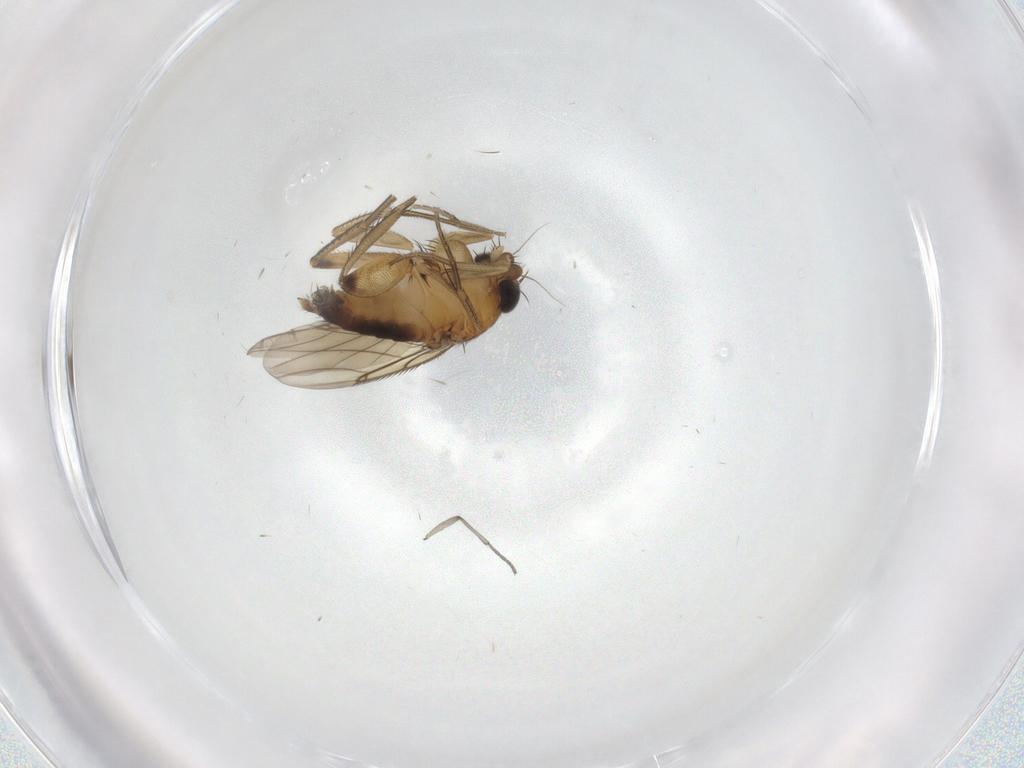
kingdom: Animalia
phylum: Arthropoda
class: Insecta
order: Diptera
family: Phoridae
